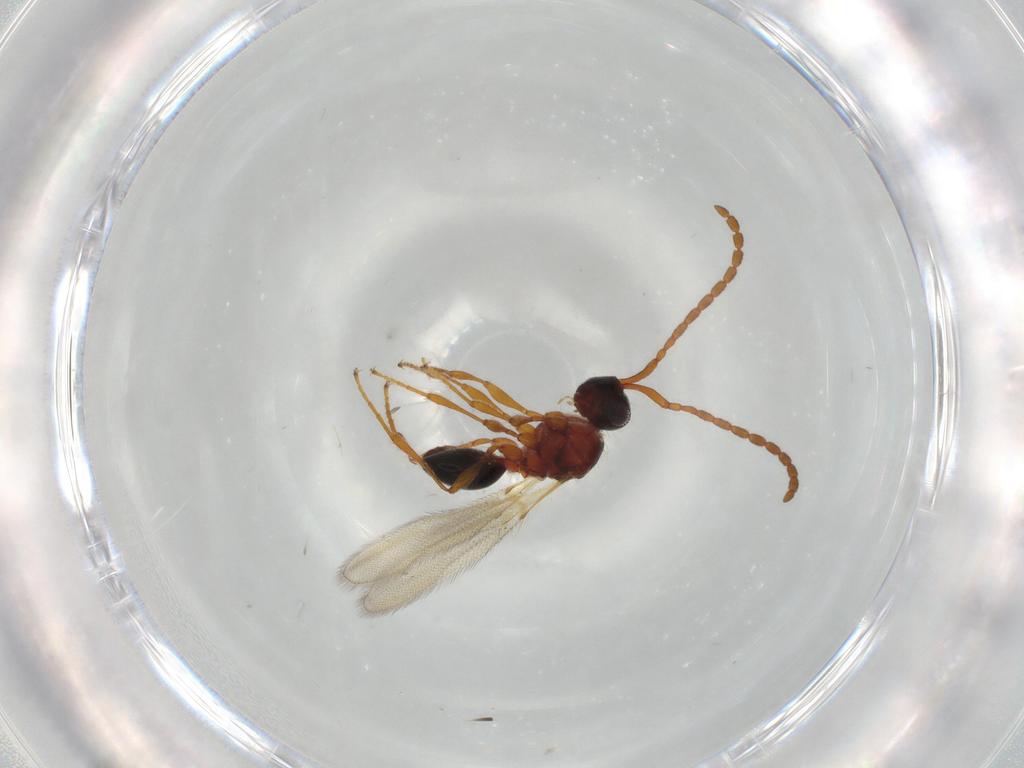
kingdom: Animalia
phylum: Arthropoda
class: Insecta
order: Hymenoptera
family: Diapriidae
